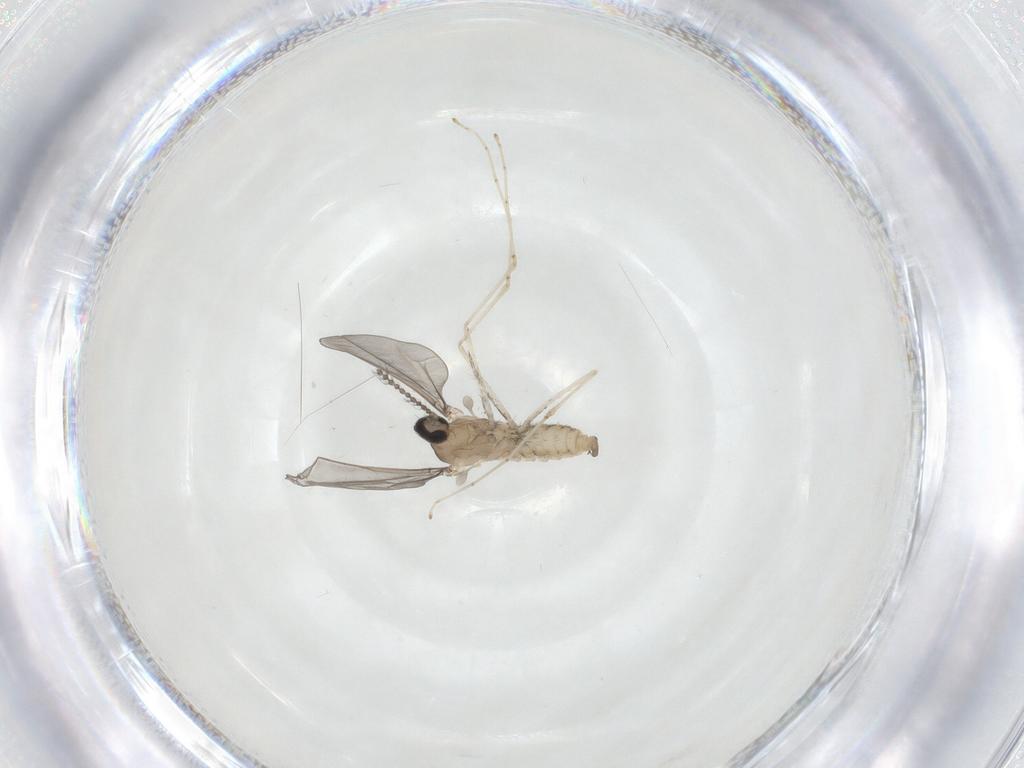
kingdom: Animalia
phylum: Arthropoda
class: Insecta
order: Diptera
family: Cecidomyiidae
